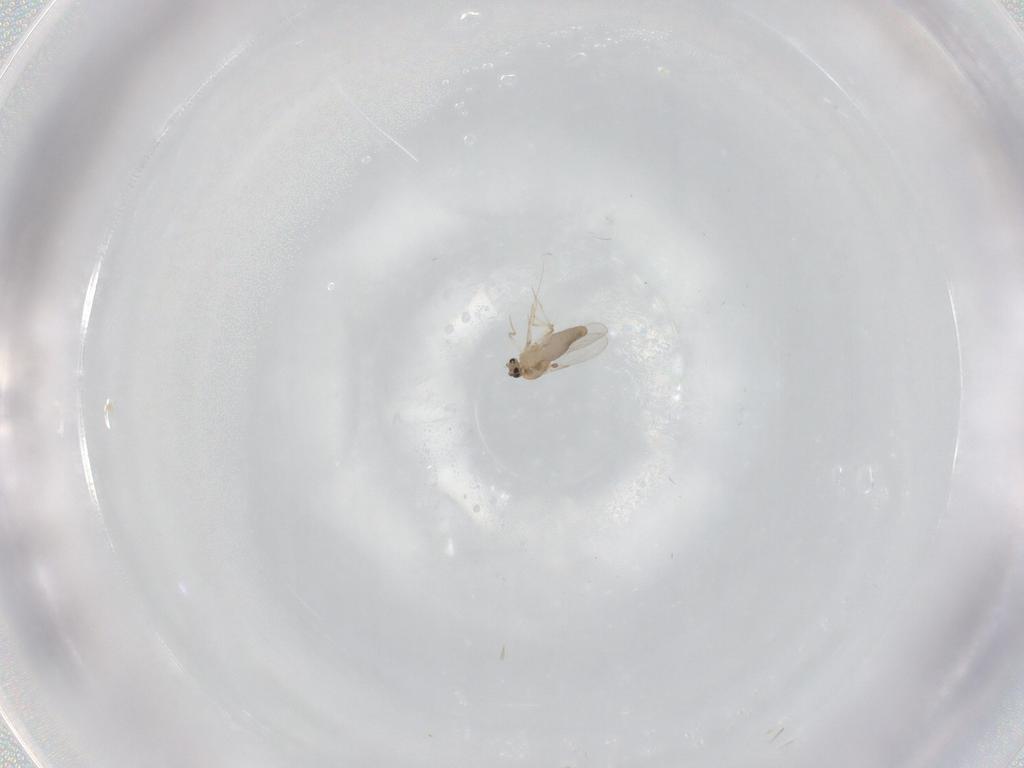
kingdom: Animalia
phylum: Arthropoda
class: Insecta
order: Diptera
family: Ceratopogonidae
